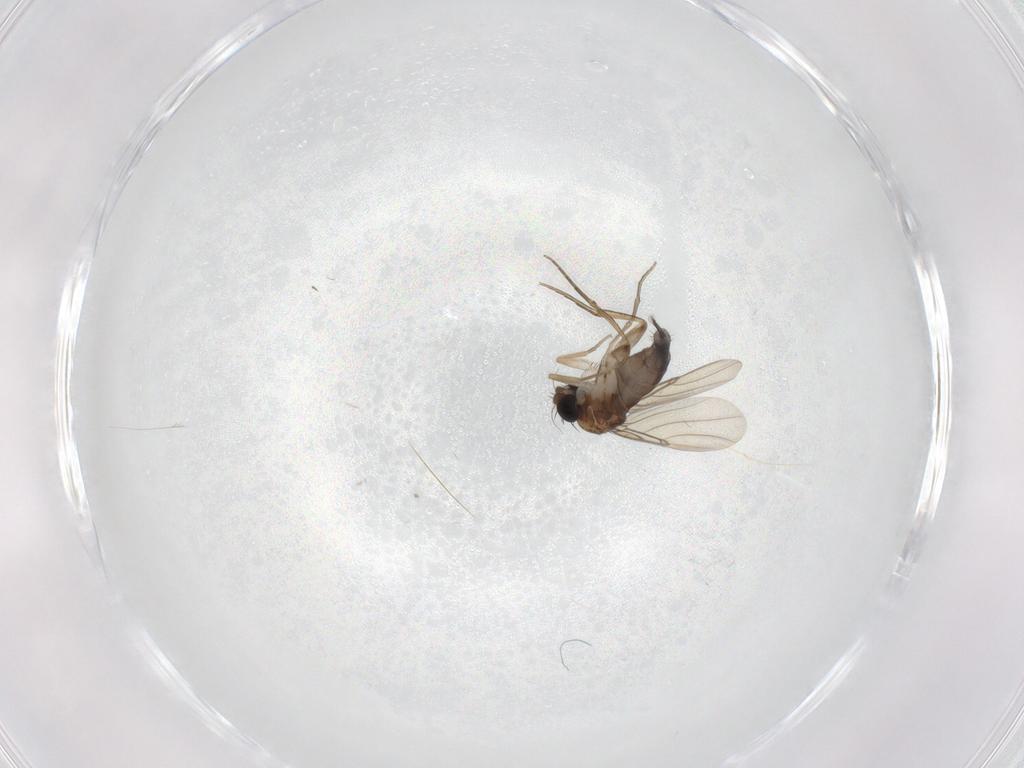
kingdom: Animalia
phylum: Arthropoda
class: Insecta
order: Diptera
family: Phoridae
